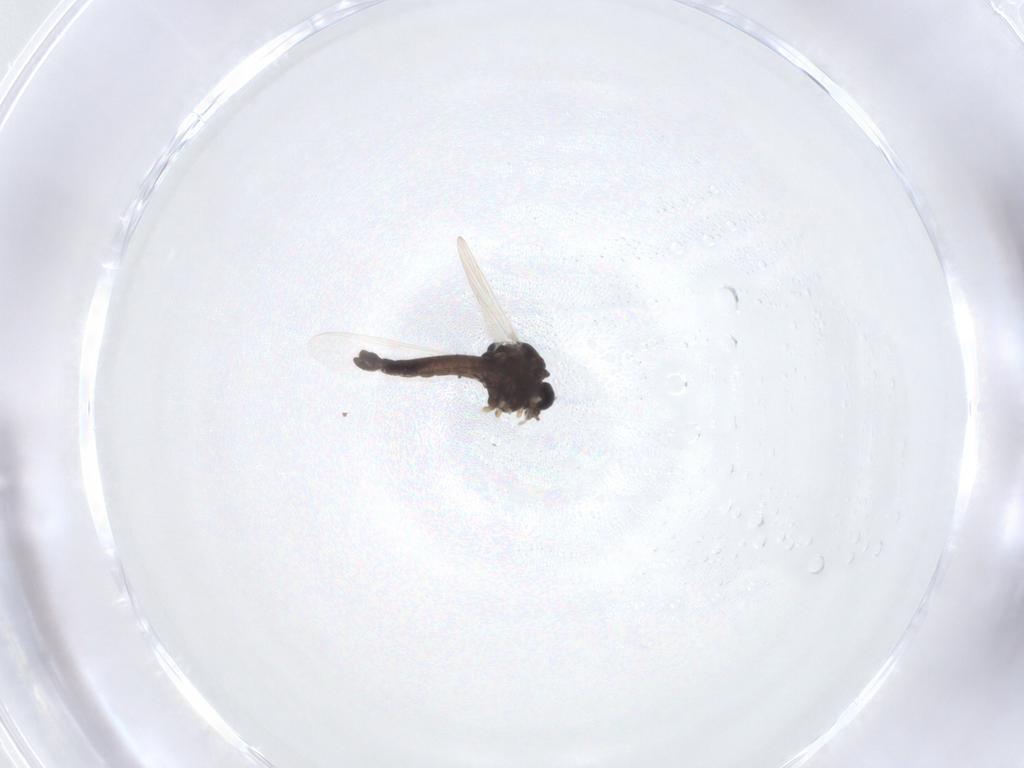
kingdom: Animalia
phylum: Arthropoda
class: Insecta
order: Diptera
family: Chironomidae
